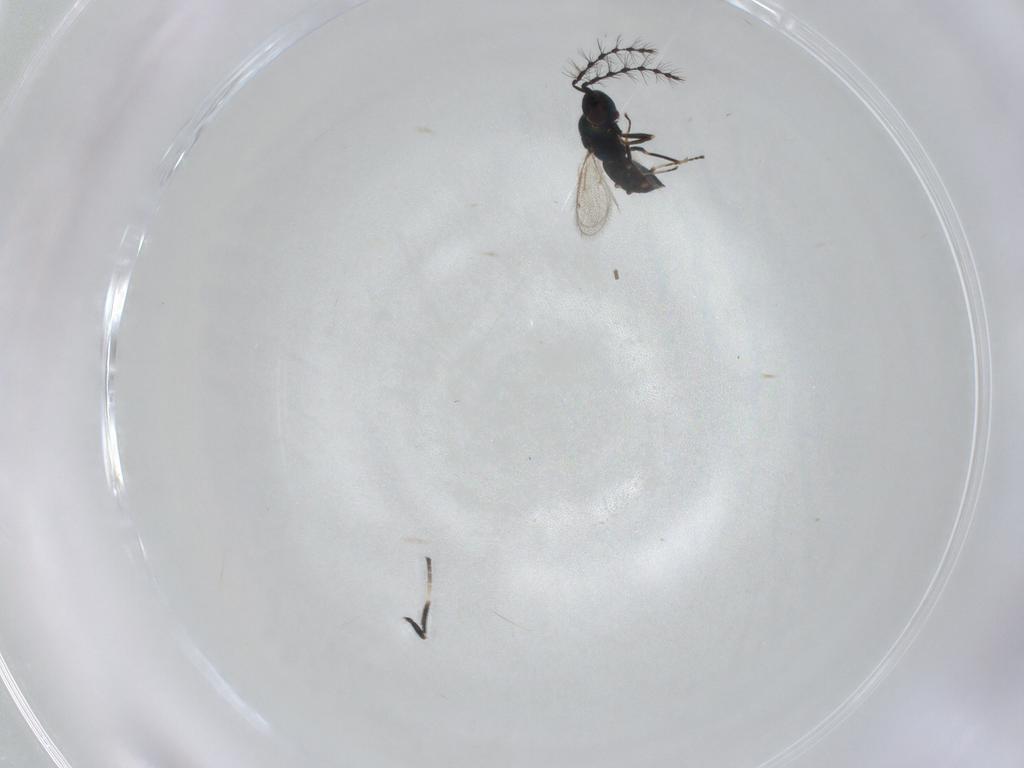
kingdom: Animalia
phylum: Arthropoda
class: Insecta
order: Hymenoptera
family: Eulophidae
